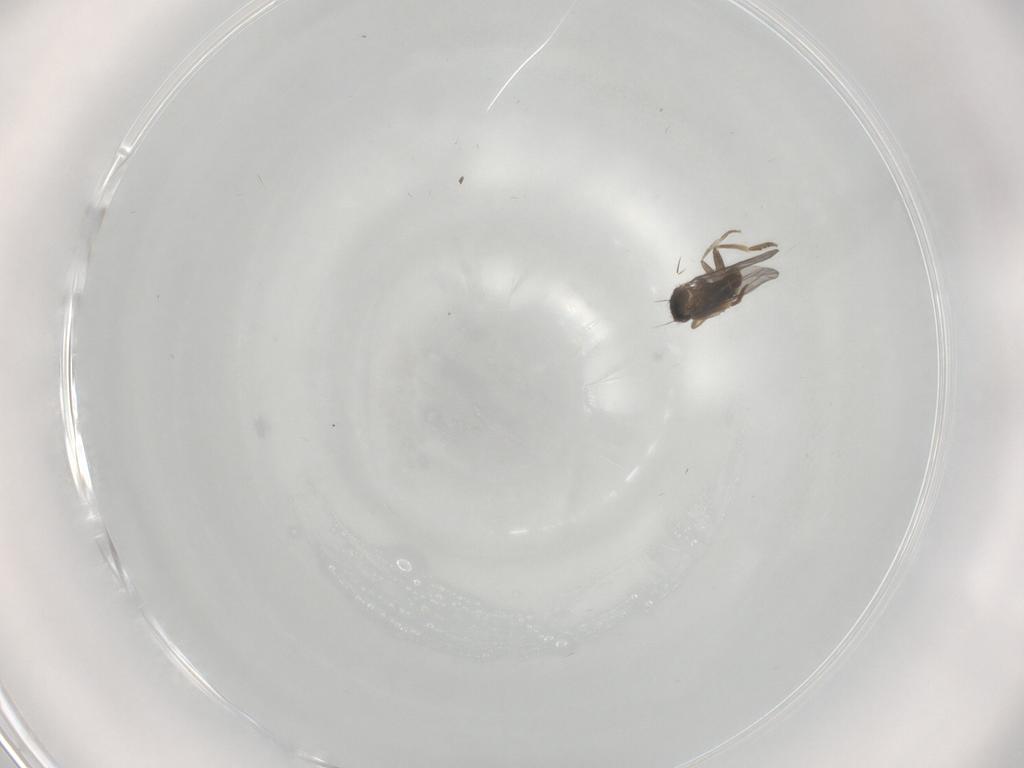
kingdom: Animalia
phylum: Arthropoda
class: Insecta
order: Diptera
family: Phoridae
